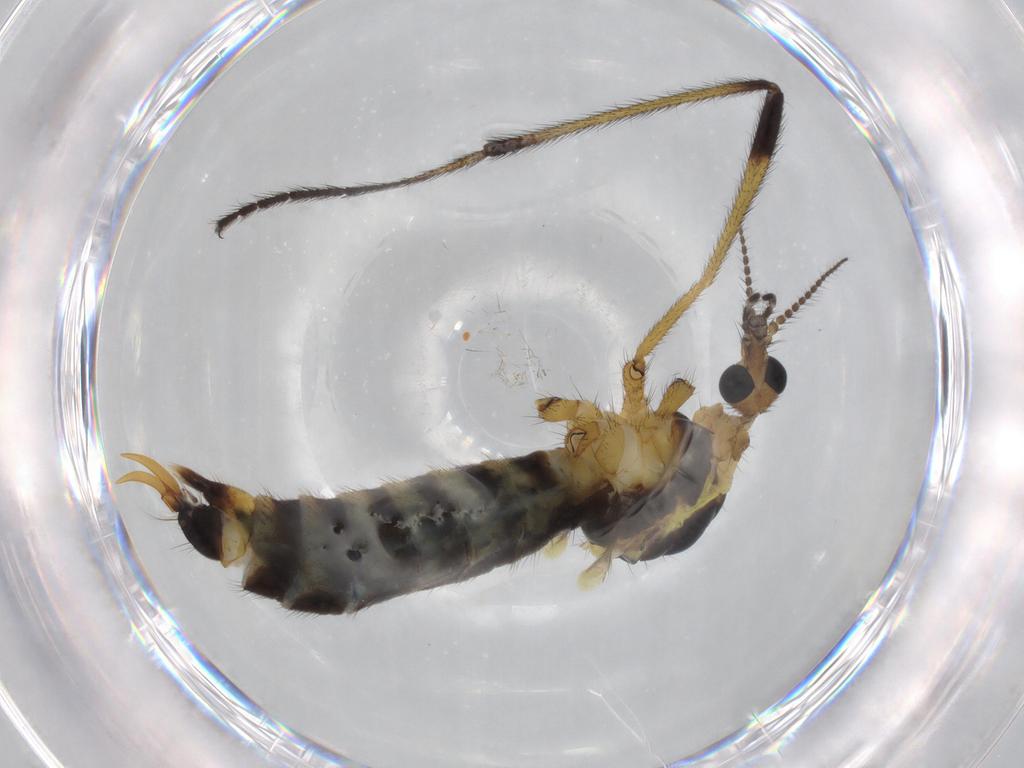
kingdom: Animalia
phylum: Arthropoda
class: Insecta
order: Diptera
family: Limoniidae
